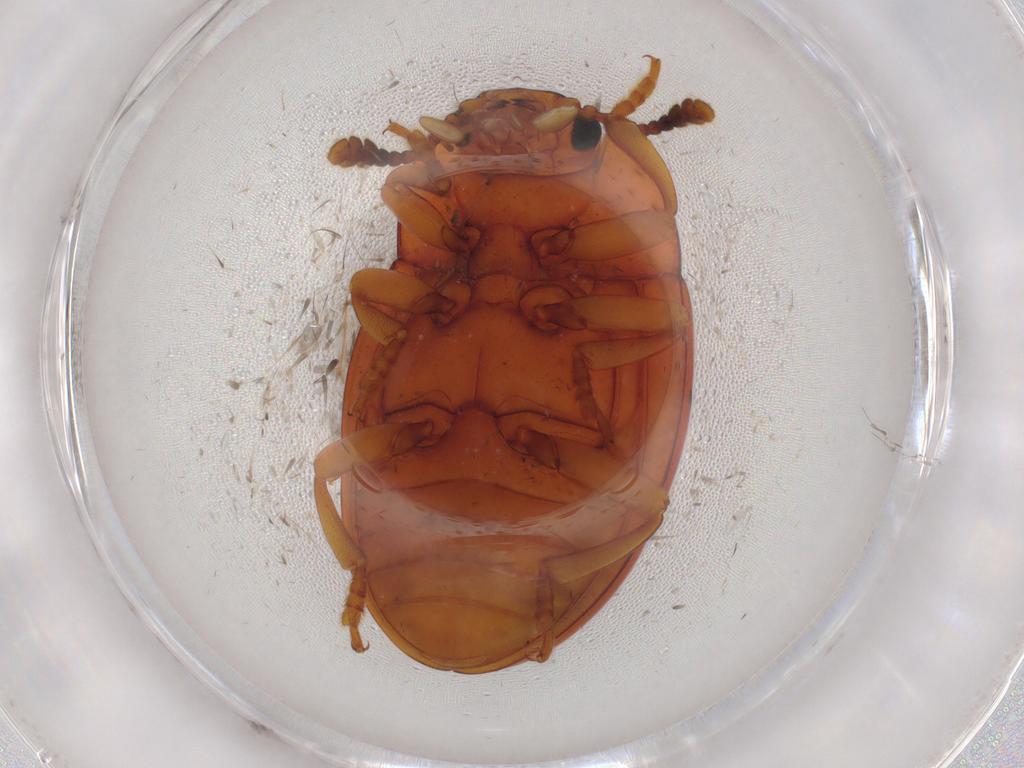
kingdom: Animalia
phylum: Arthropoda
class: Insecta
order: Coleoptera
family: Erotylidae
